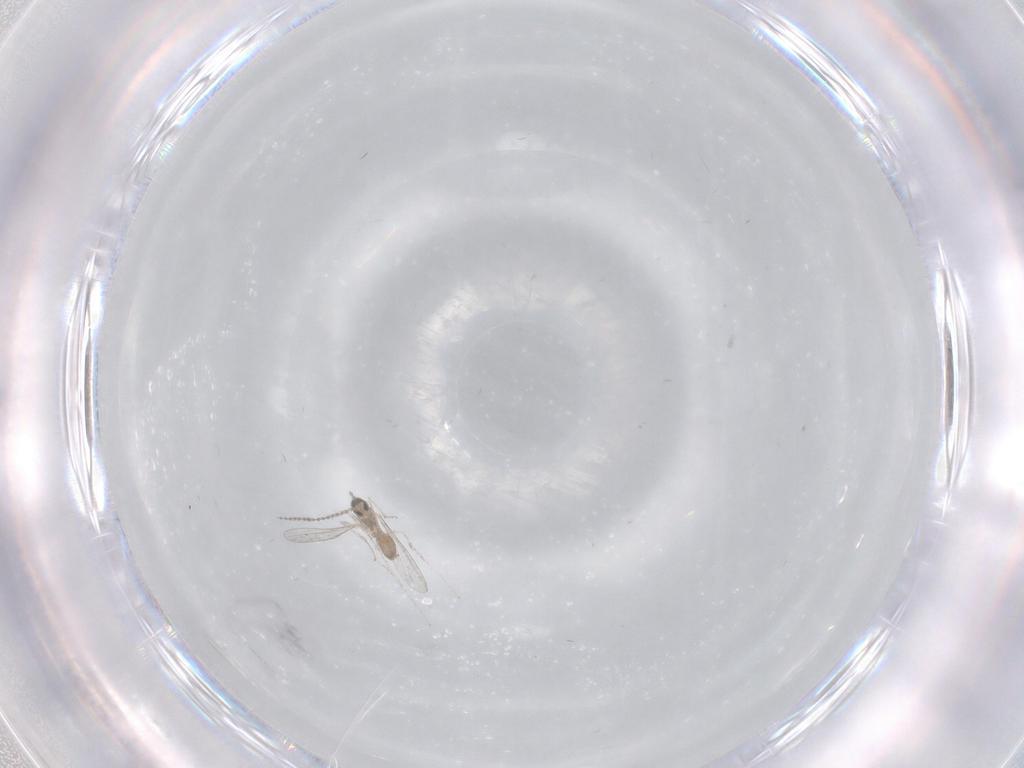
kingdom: Animalia
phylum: Arthropoda
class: Insecta
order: Diptera
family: Cecidomyiidae
